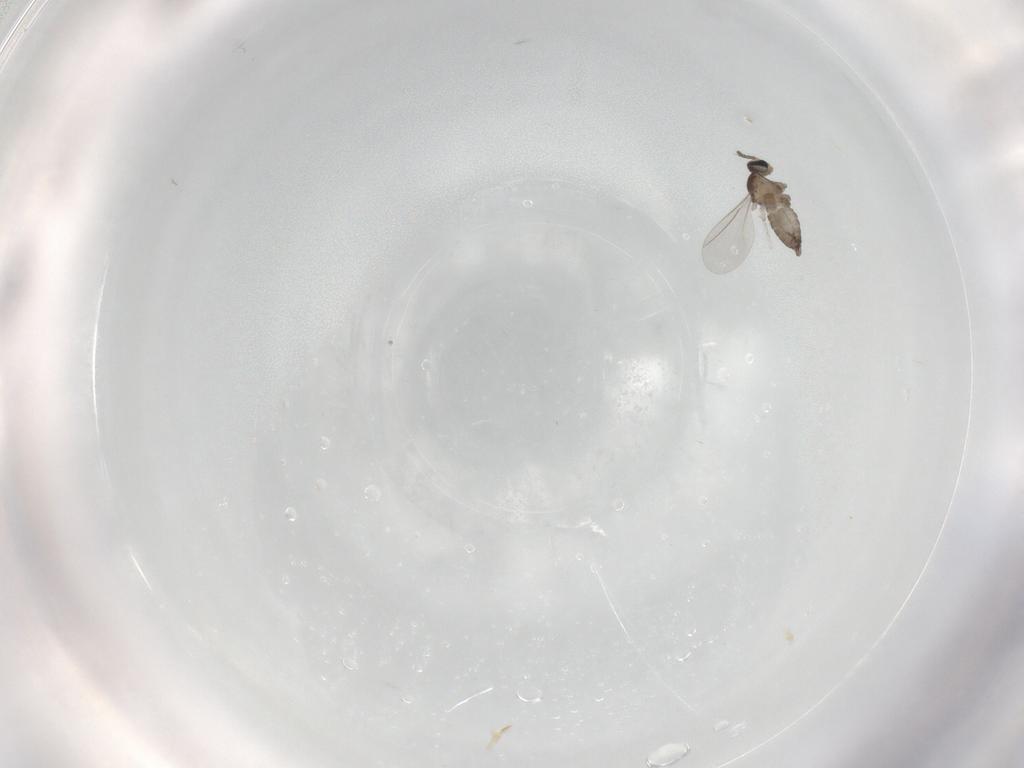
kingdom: Animalia
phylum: Arthropoda
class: Insecta
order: Diptera
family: Cecidomyiidae
